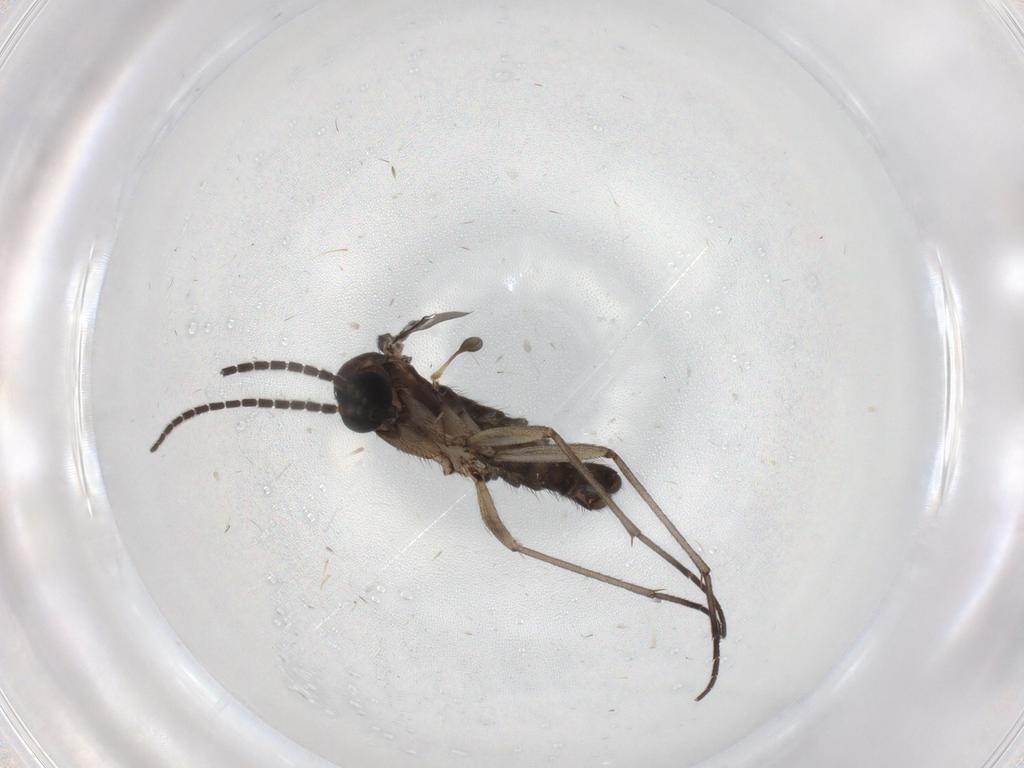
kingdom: Animalia
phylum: Arthropoda
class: Insecta
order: Diptera
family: Sciaridae
